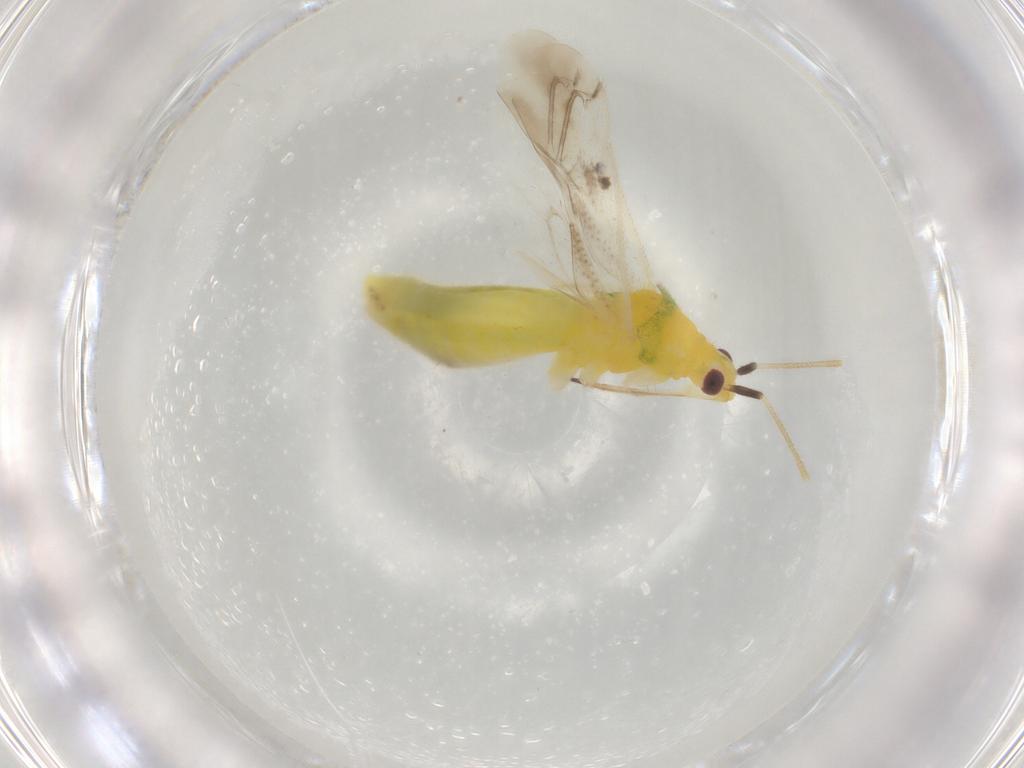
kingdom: Animalia
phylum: Arthropoda
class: Insecta
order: Hemiptera
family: Miridae
